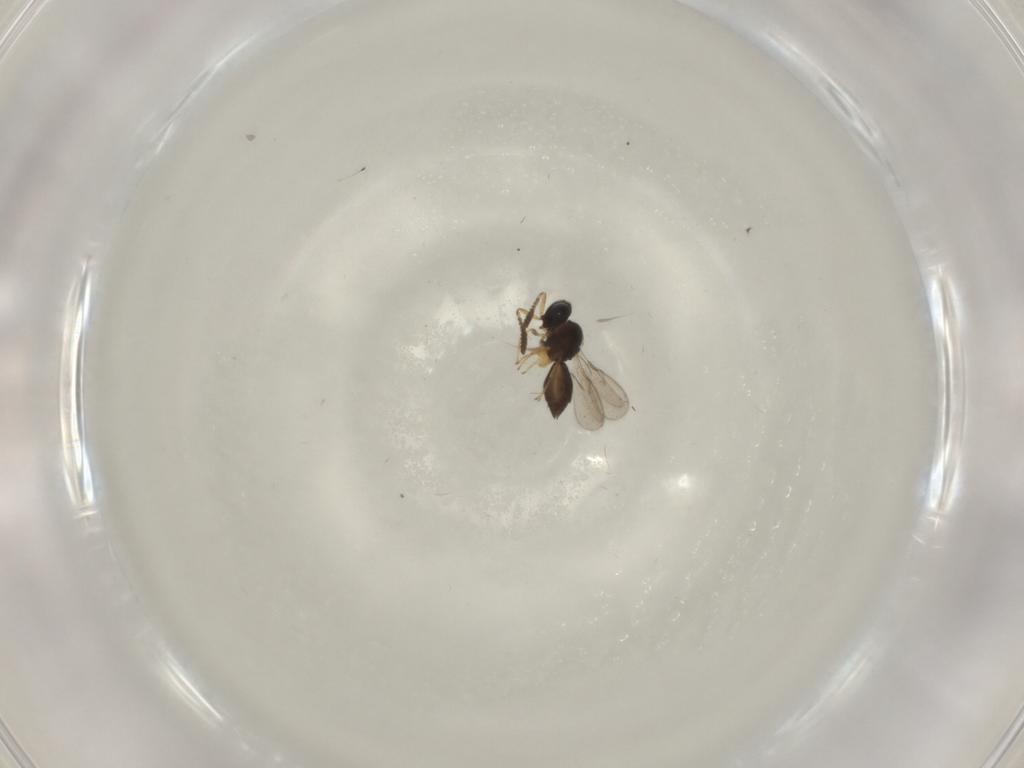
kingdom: Animalia
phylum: Arthropoda
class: Insecta
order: Hymenoptera
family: Scelionidae
